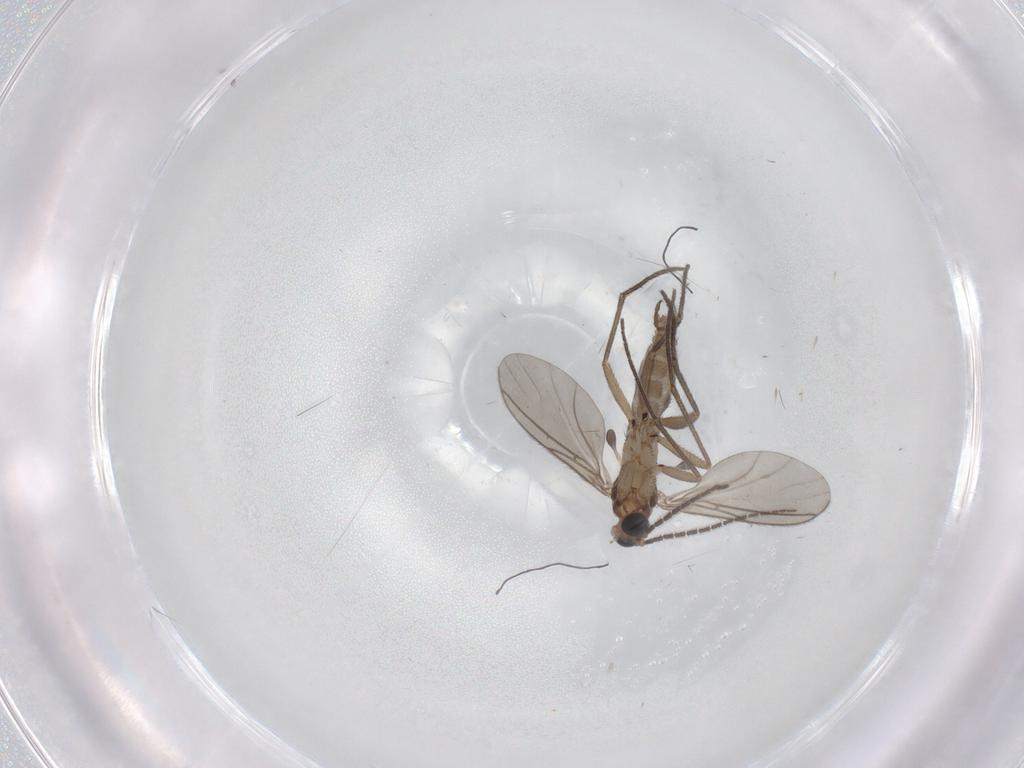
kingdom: Animalia
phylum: Arthropoda
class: Insecta
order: Diptera
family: Sciaridae
